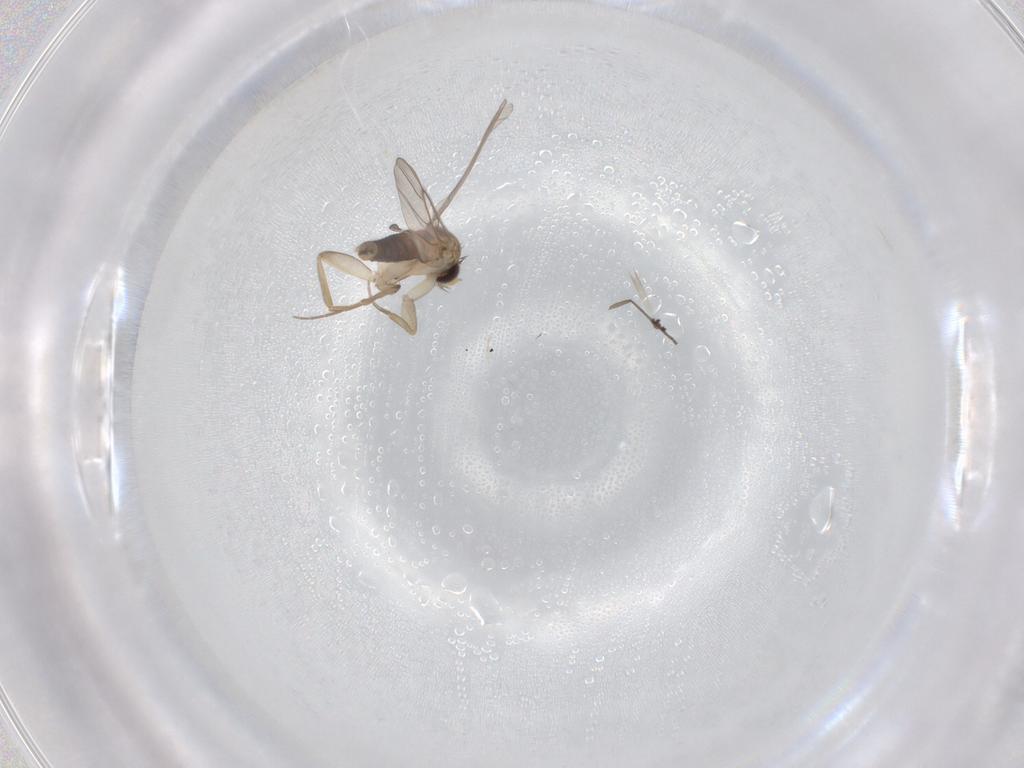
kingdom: Animalia
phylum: Arthropoda
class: Insecta
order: Diptera
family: Phoridae
